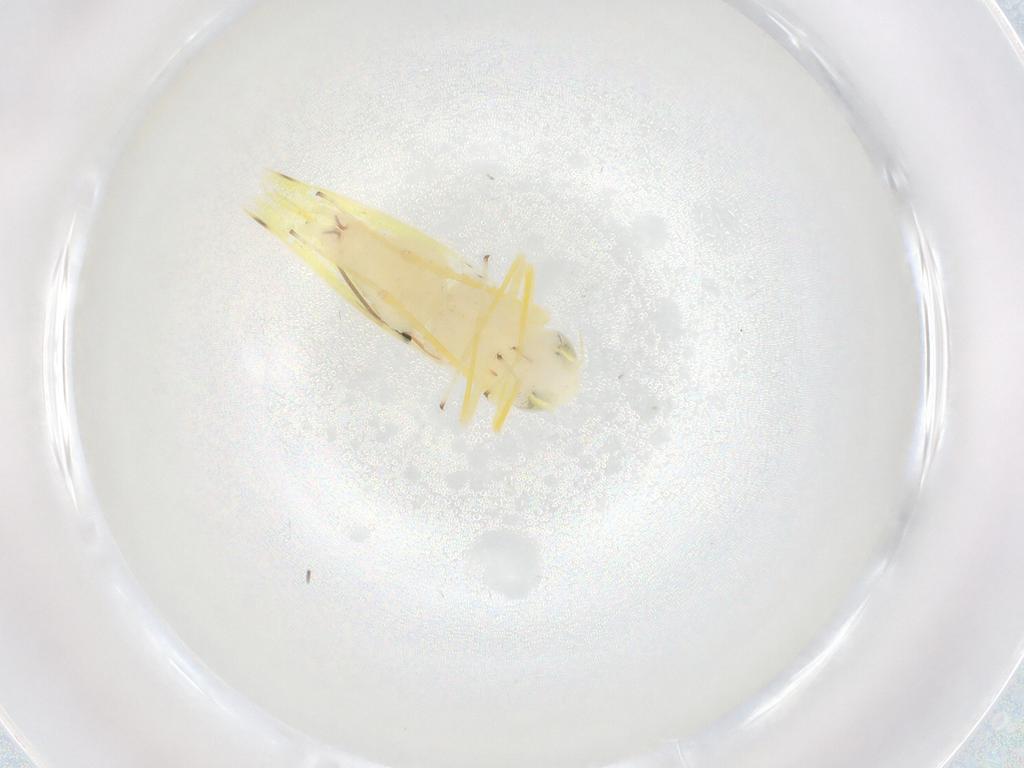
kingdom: Animalia
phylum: Arthropoda
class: Insecta
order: Hemiptera
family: Cicadellidae
